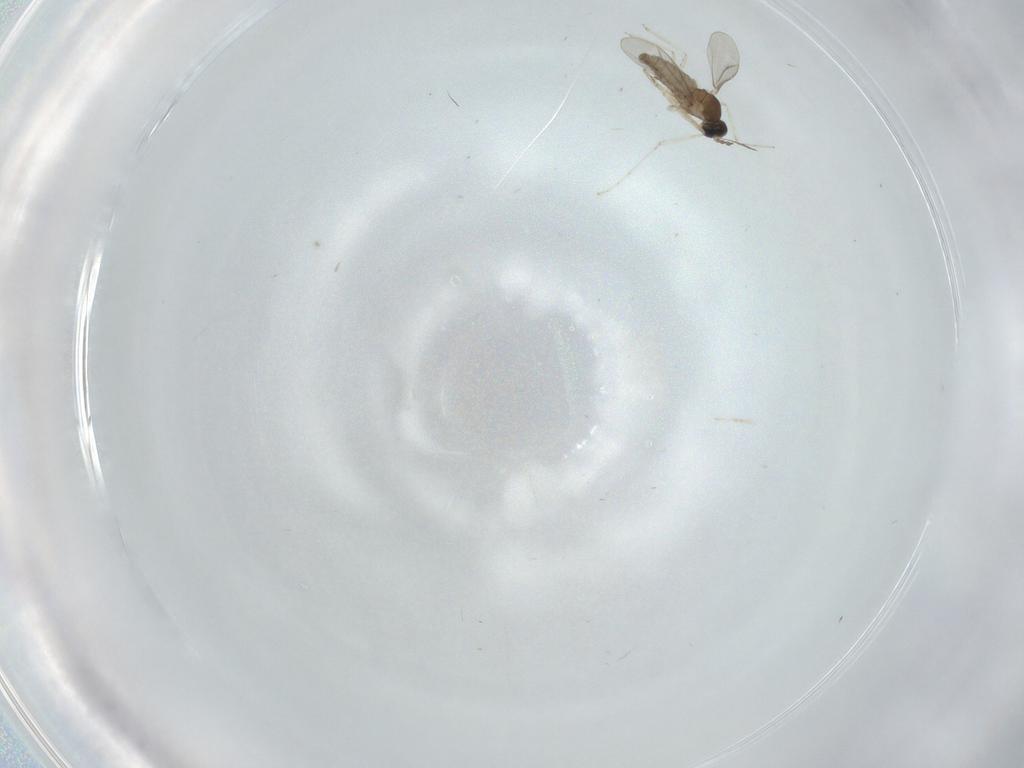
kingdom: Animalia
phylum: Arthropoda
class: Insecta
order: Diptera
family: Cecidomyiidae
